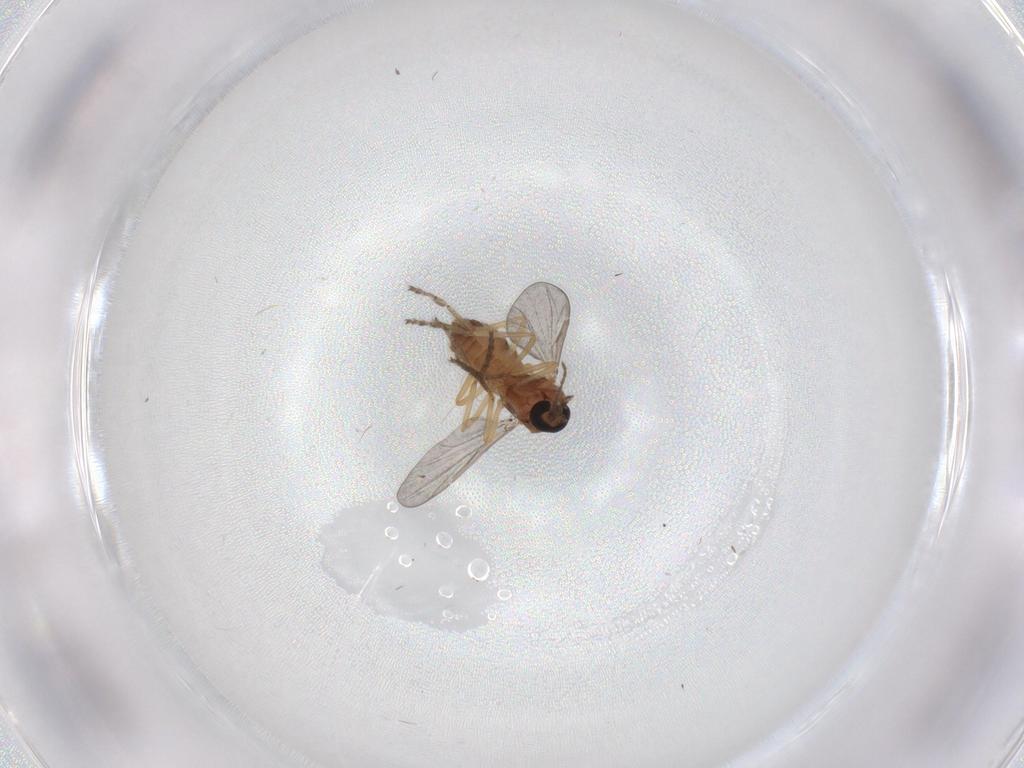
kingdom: Animalia
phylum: Arthropoda
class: Insecta
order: Diptera
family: Ceratopogonidae
